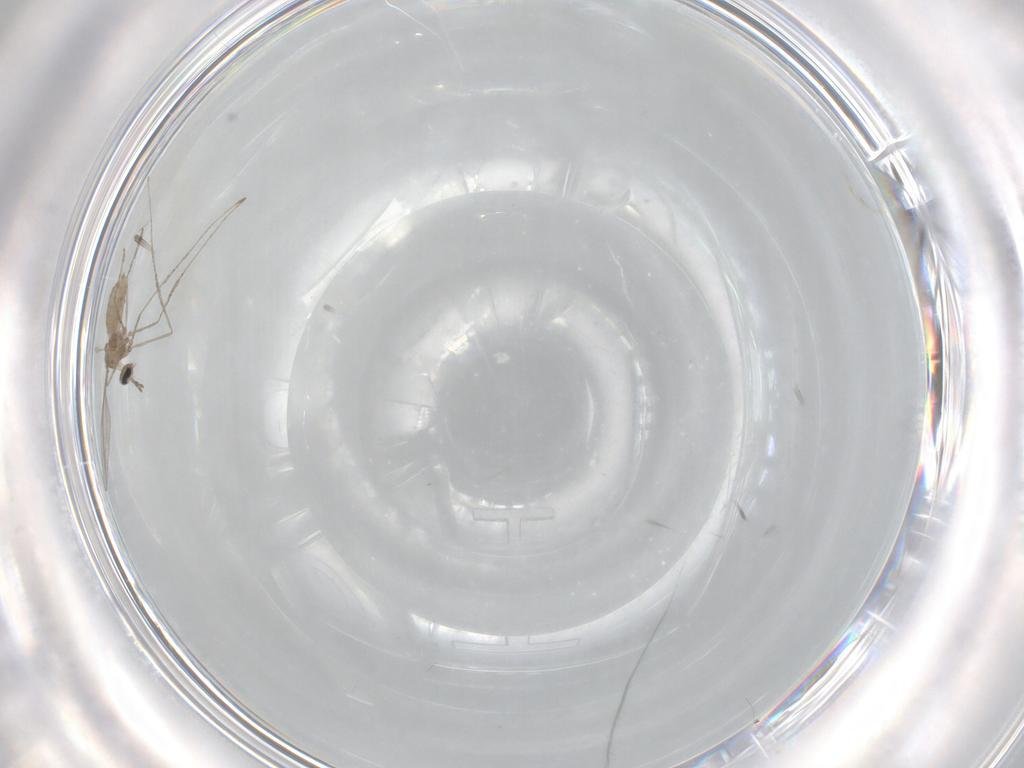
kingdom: Animalia
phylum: Arthropoda
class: Insecta
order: Diptera
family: Cecidomyiidae
